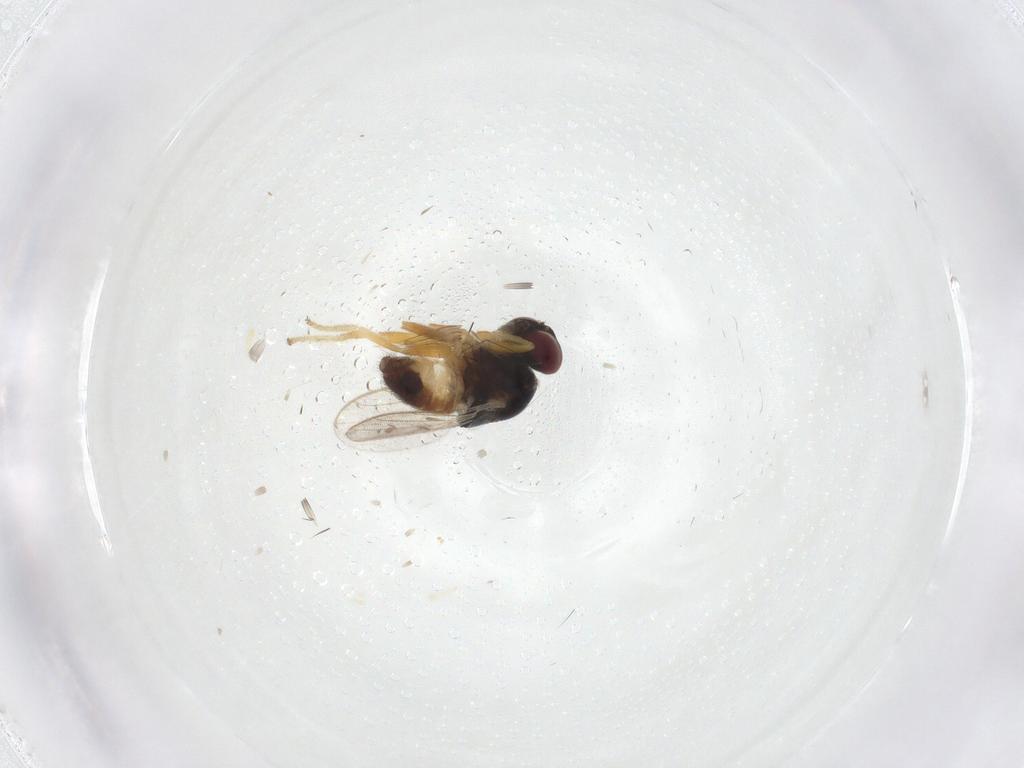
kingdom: Animalia
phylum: Arthropoda
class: Insecta
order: Diptera
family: Chloropidae
